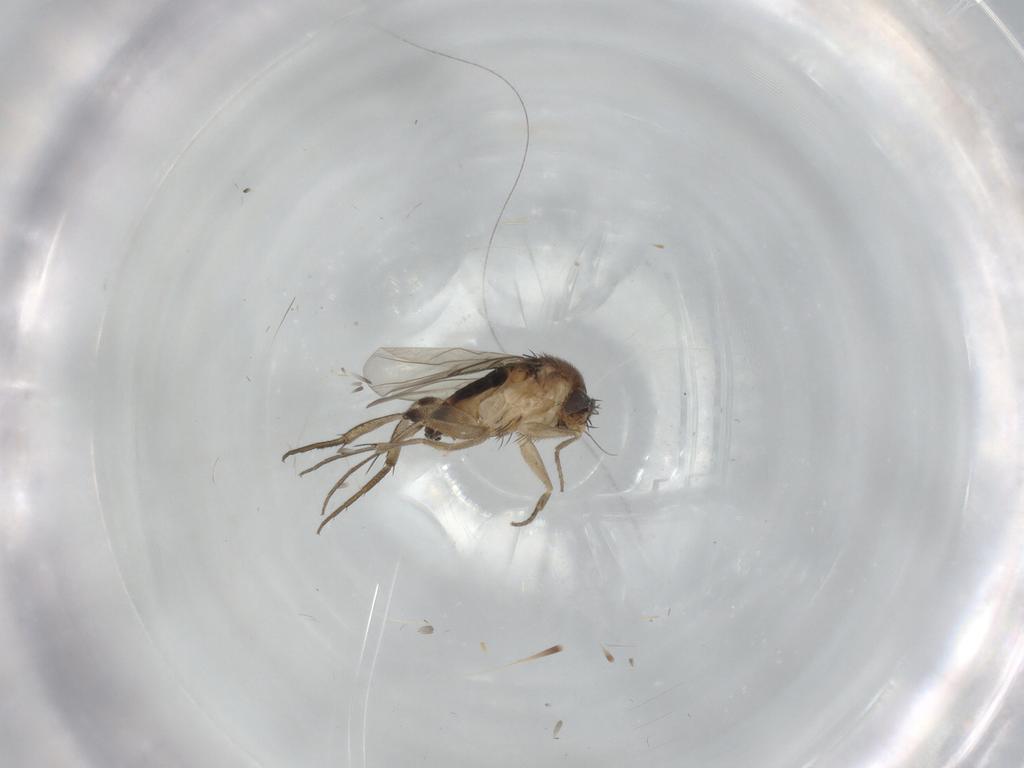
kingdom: Animalia
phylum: Arthropoda
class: Insecta
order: Diptera
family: Phoridae
